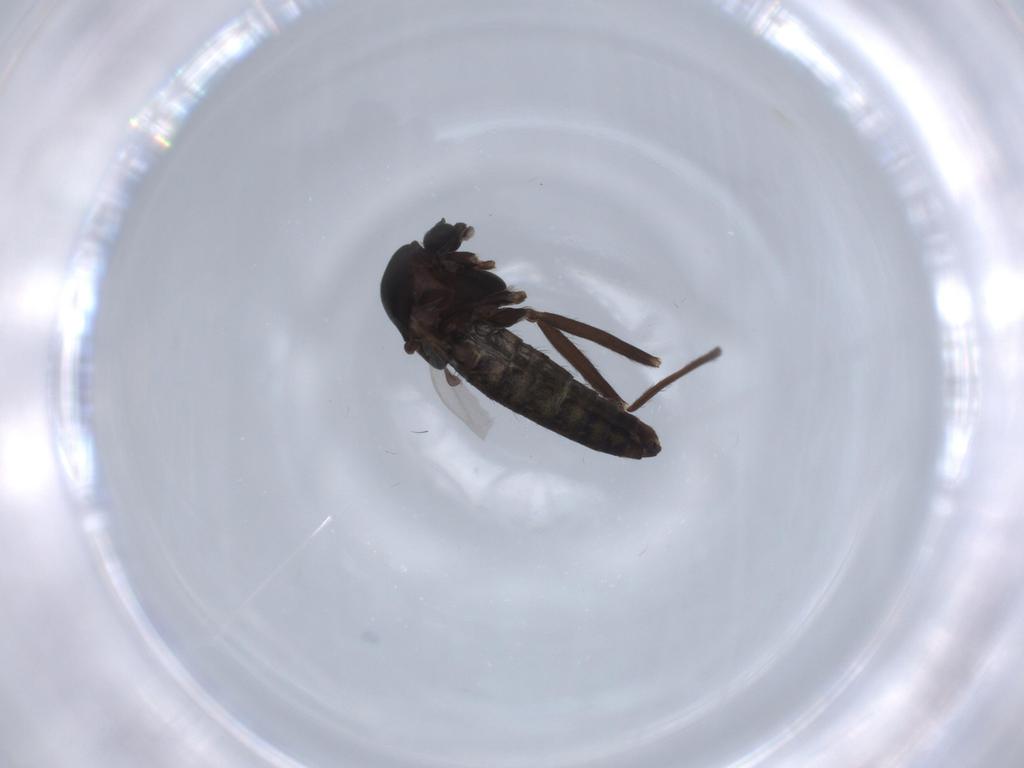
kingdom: Animalia
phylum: Arthropoda
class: Insecta
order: Diptera
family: Chironomidae
